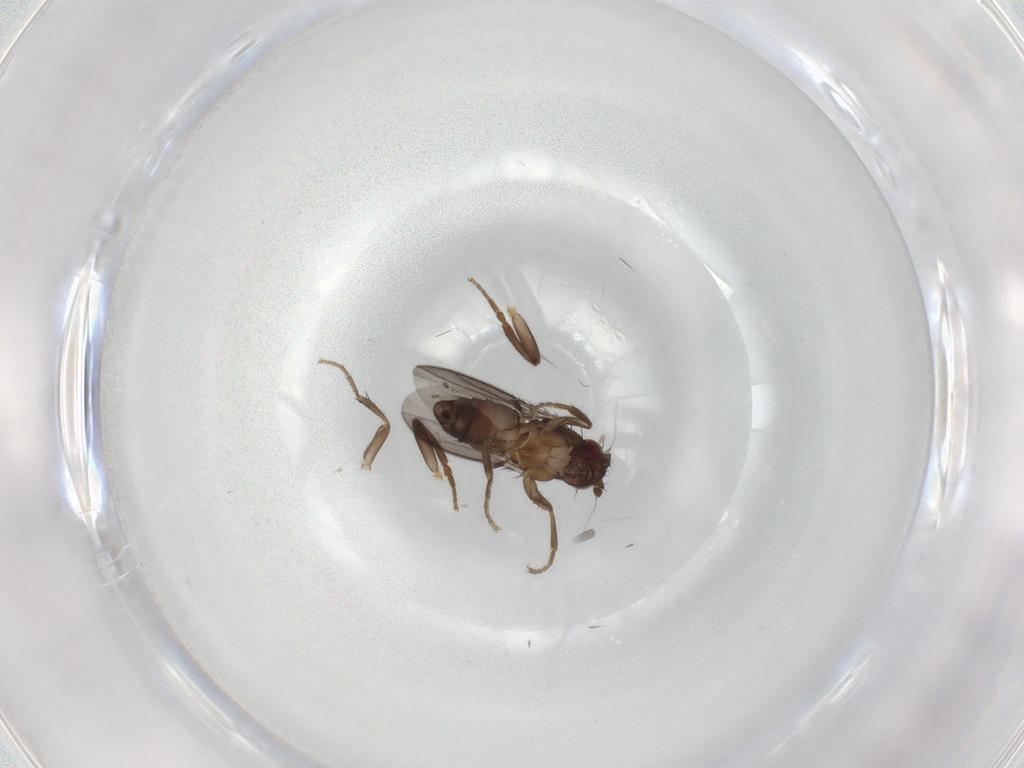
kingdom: Animalia
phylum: Arthropoda
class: Insecta
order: Diptera
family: Sphaeroceridae
